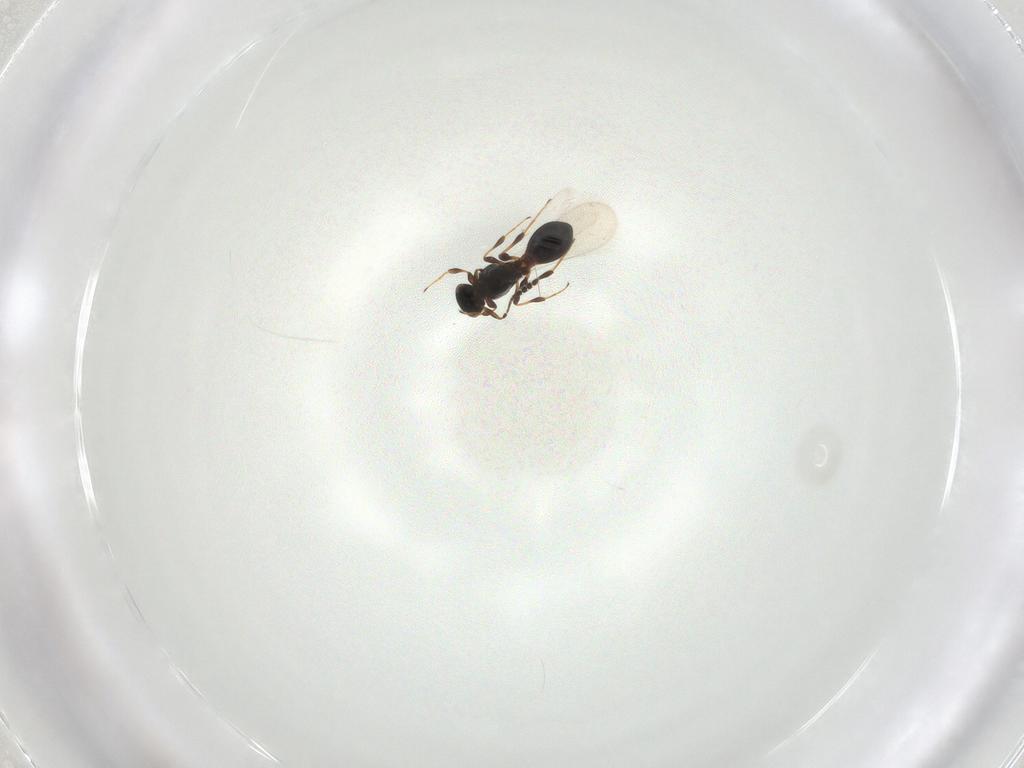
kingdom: Animalia
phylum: Arthropoda
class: Insecta
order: Hymenoptera
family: Platygastridae
